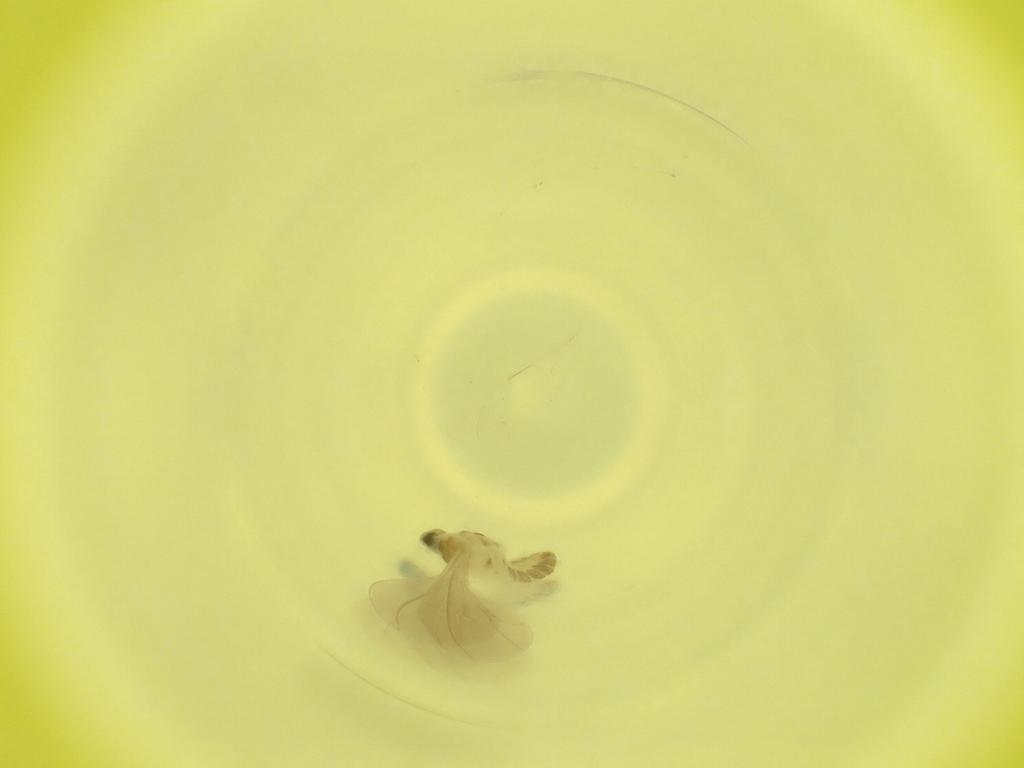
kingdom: Animalia
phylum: Arthropoda
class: Insecta
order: Diptera
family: Cecidomyiidae
